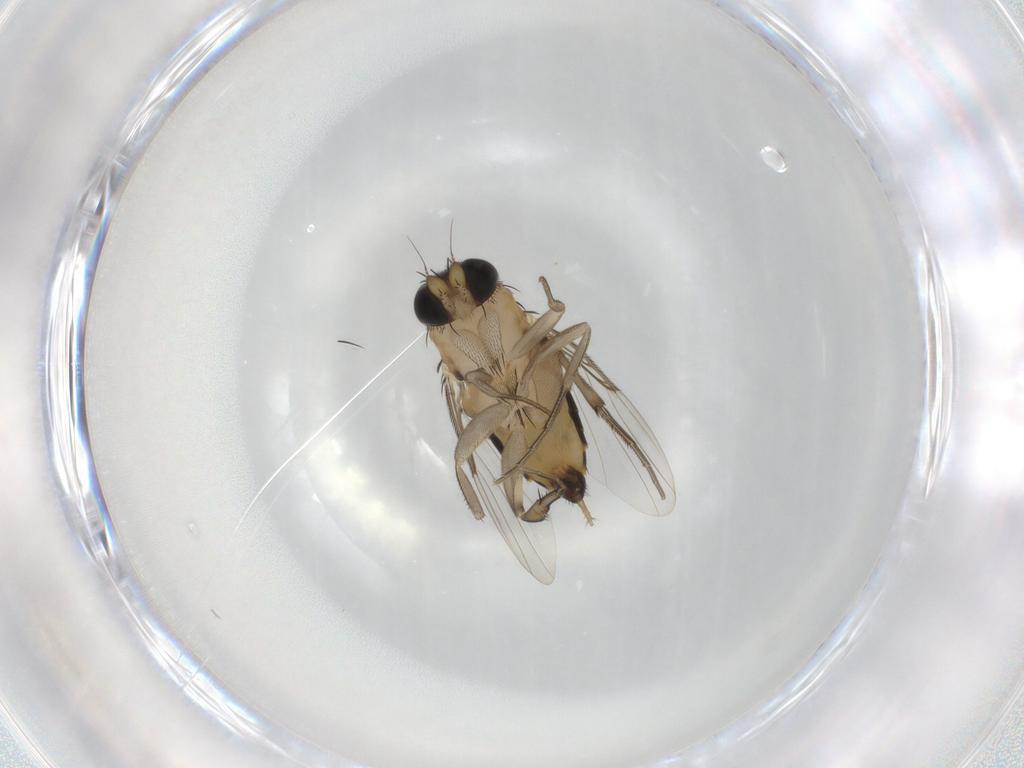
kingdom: Animalia
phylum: Arthropoda
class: Insecta
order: Diptera
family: Phoridae
